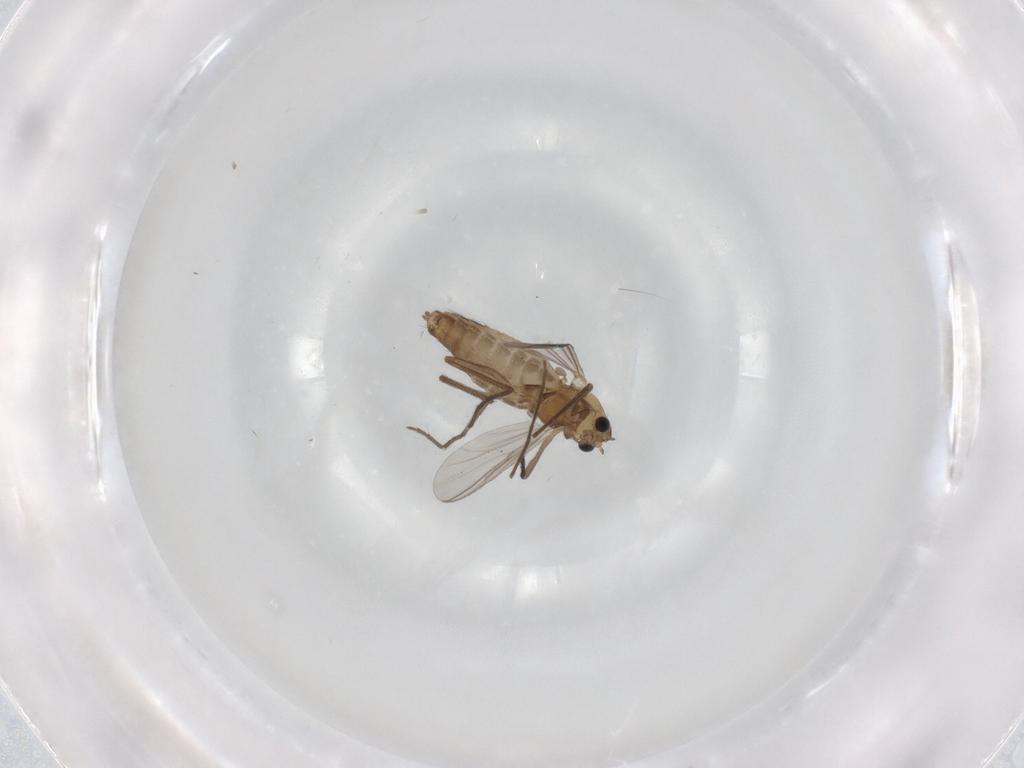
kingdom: Animalia
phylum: Arthropoda
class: Insecta
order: Diptera
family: Chironomidae
